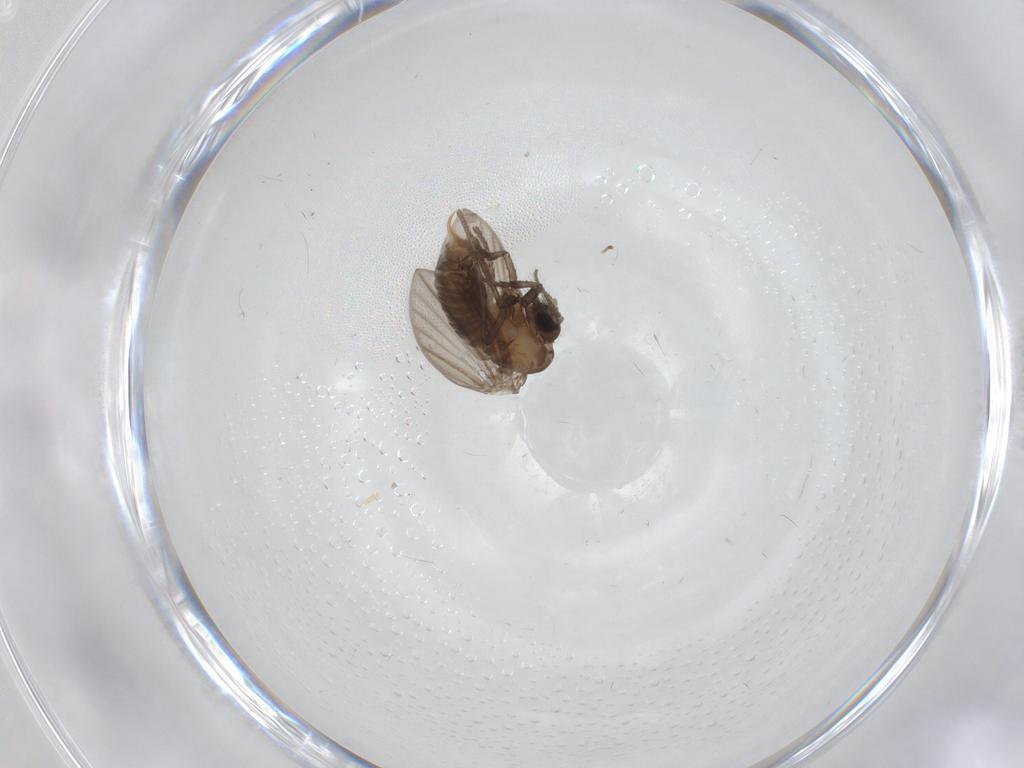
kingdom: Animalia
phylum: Arthropoda
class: Insecta
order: Diptera
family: Psychodidae
